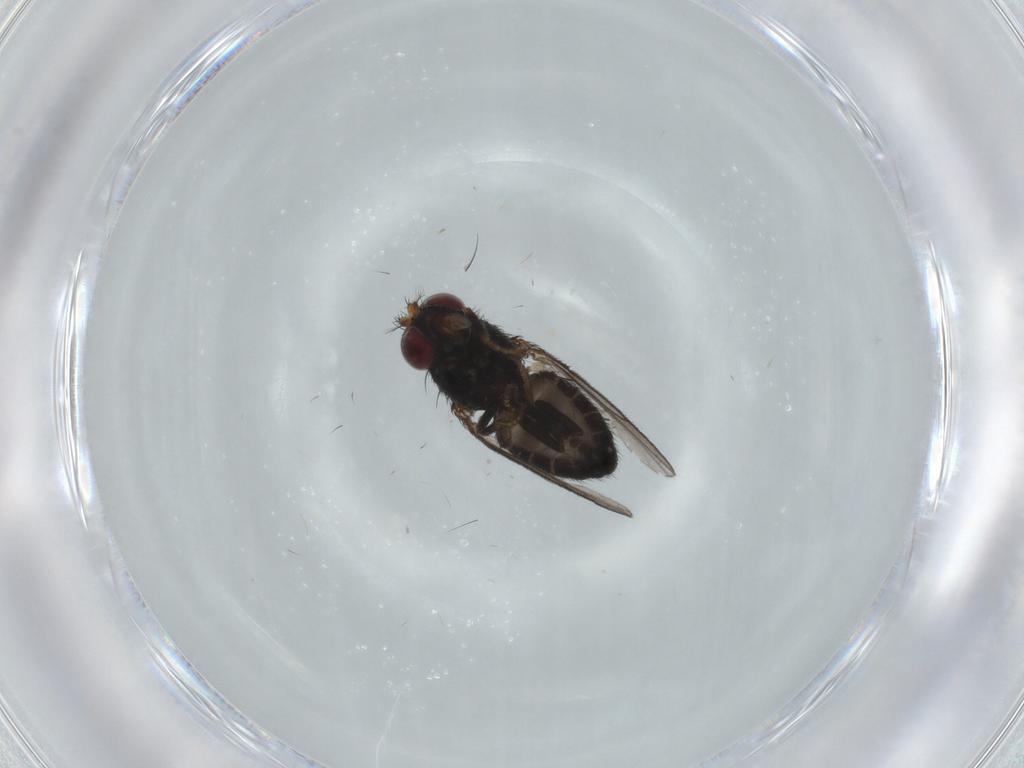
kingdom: Animalia
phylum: Arthropoda
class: Insecta
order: Diptera
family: Ephydridae
